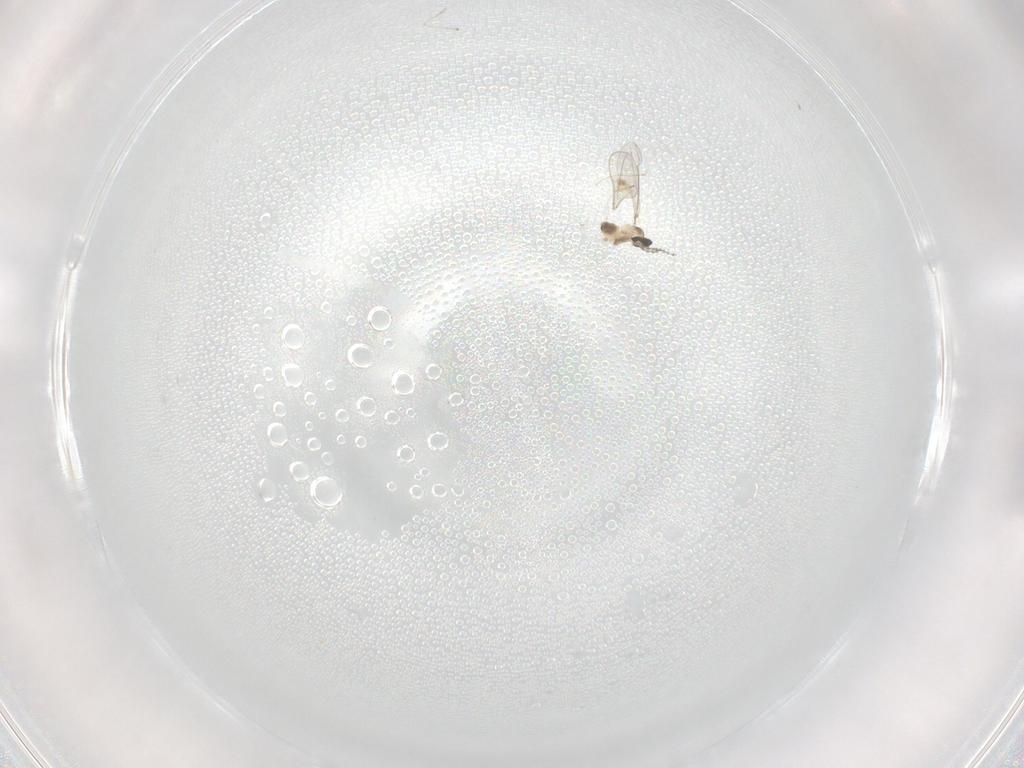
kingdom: Animalia
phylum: Arthropoda
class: Insecta
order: Diptera
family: Cecidomyiidae
